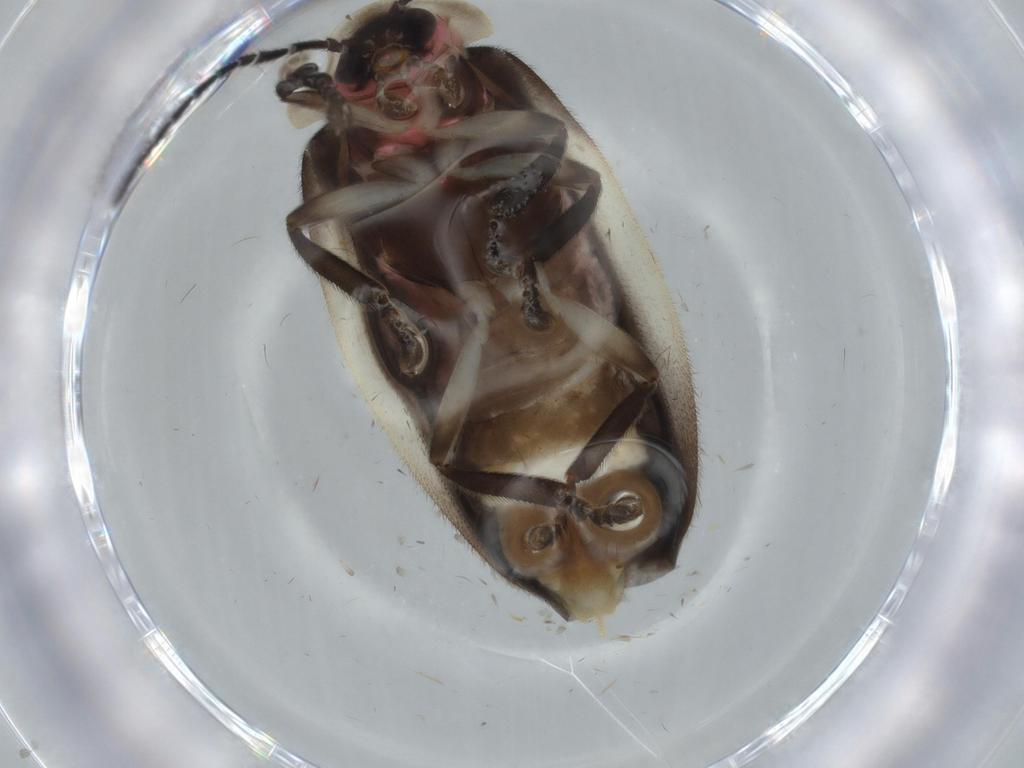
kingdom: Animalia
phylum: Arthropoda
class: Insecta
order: Coleoptera
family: Lampyridae
